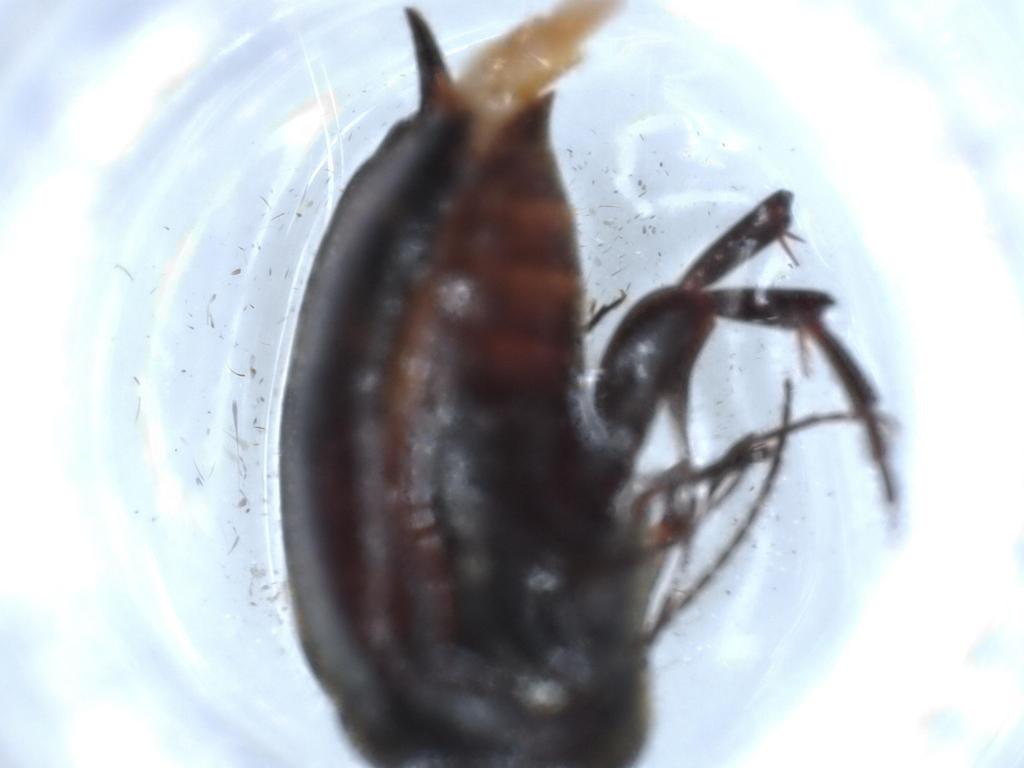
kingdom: Animalia
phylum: Arthropoda
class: Insecta
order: Coleoptera
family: Mordellidae
